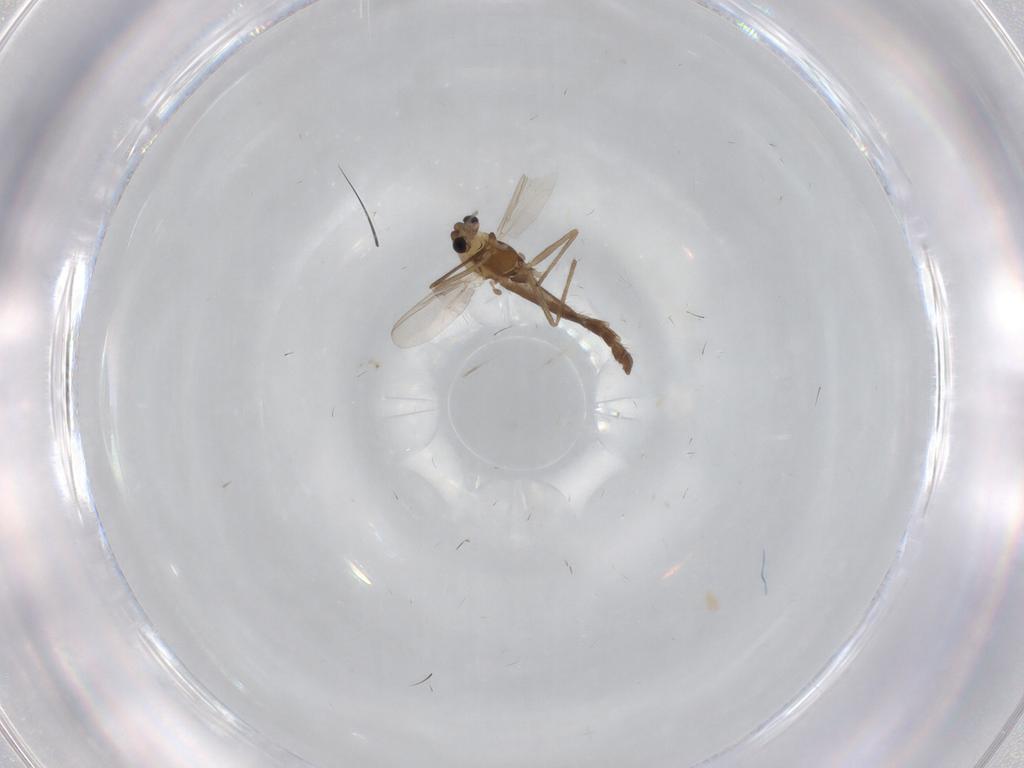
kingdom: Animalia
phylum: Arthropoda
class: Insecta
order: Diptera
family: Chironomidae
